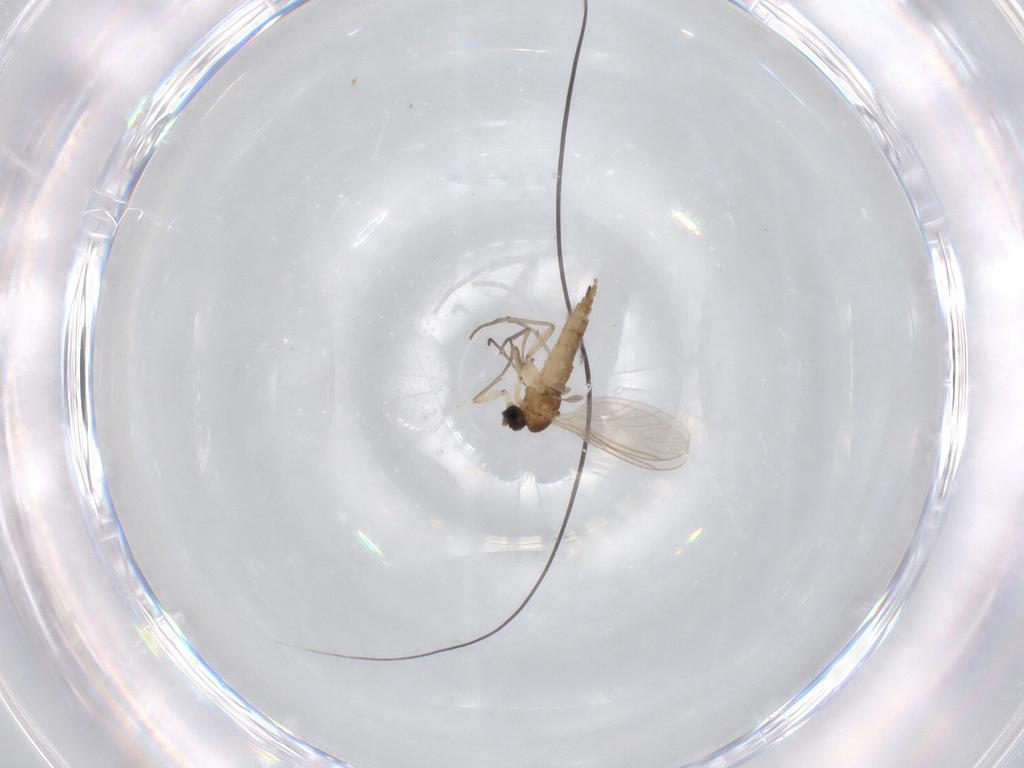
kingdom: Animalia
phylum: Arthropoda
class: Insecta
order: Diptera
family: Sciaridae
